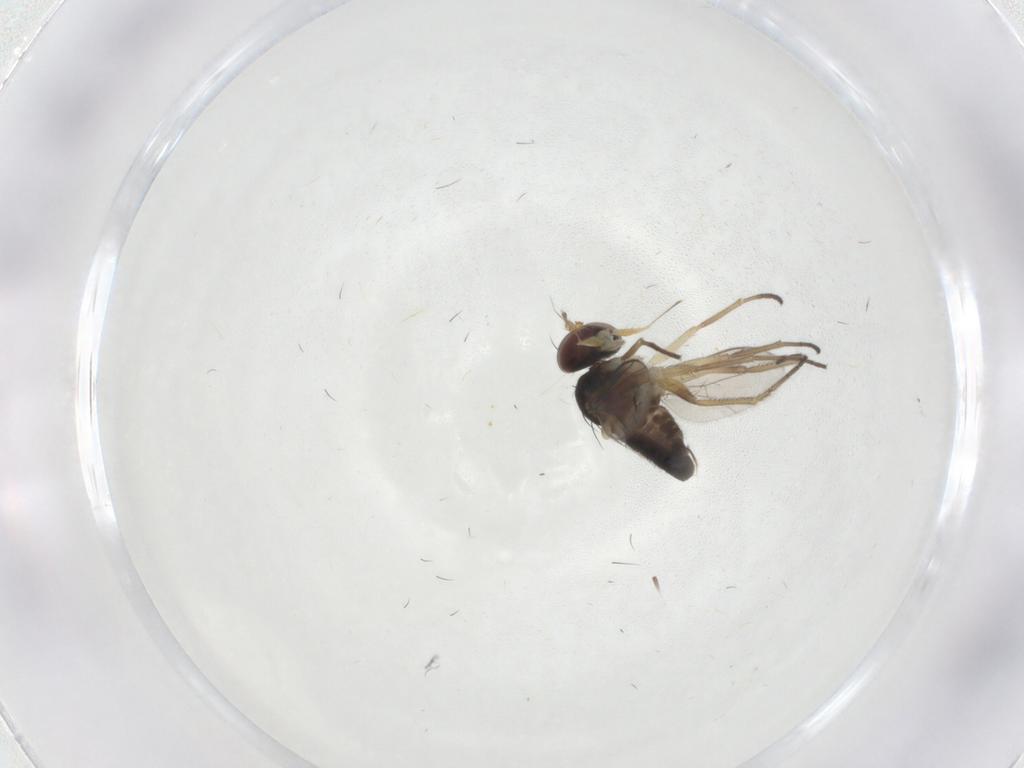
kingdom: Animalia
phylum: Arthropoda
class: Insecta
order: Diptera
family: Dolichopodidae
